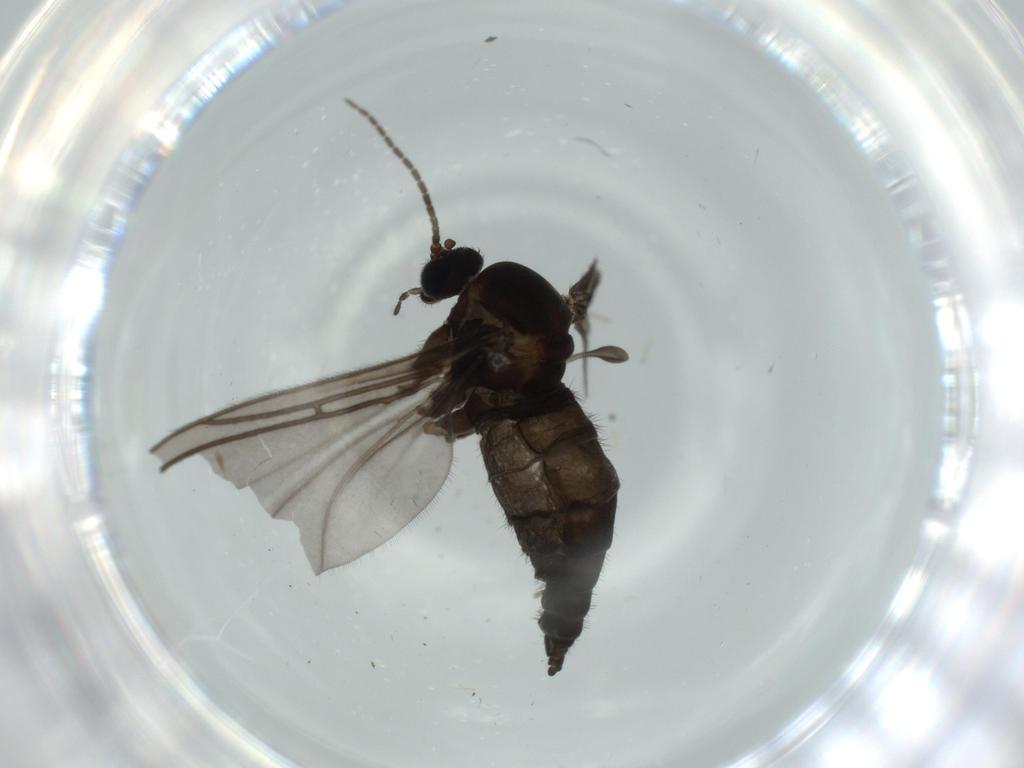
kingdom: Animalia
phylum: Arthropoda
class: Insecta
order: Diptera
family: Sciaridae
